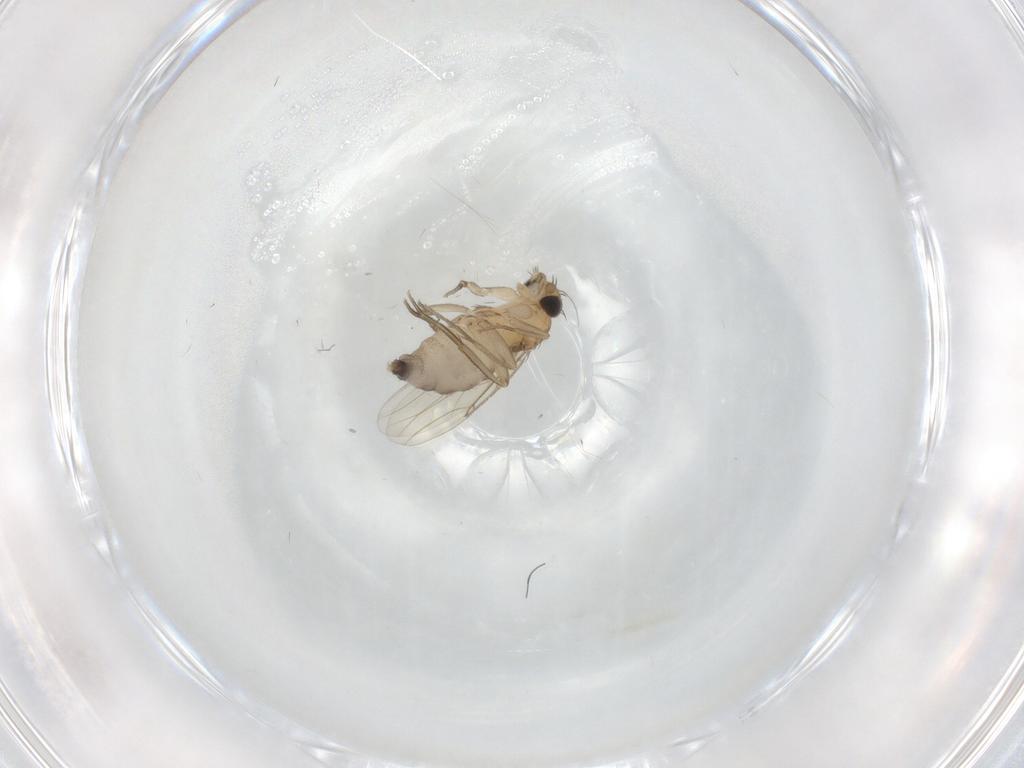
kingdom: Animalia
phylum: Arthropoda
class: Insecta
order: Diptera
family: Phoridae
